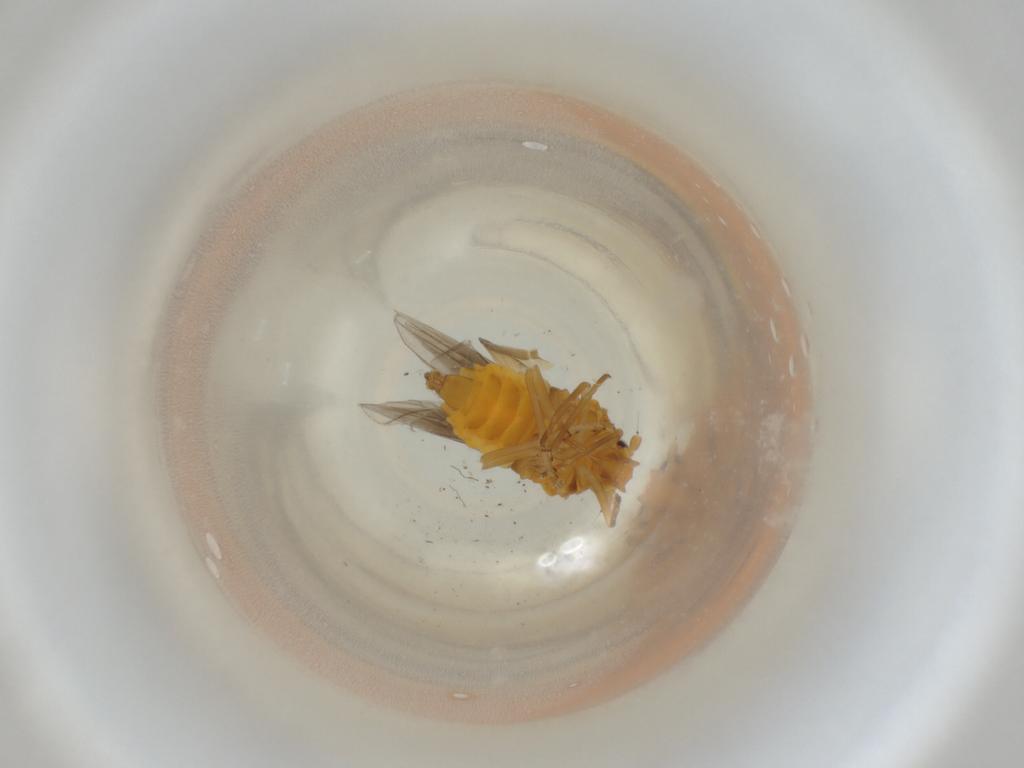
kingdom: Animalia
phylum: Arthropoda
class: Insecta
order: Hemiptera
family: Meenoplidae
